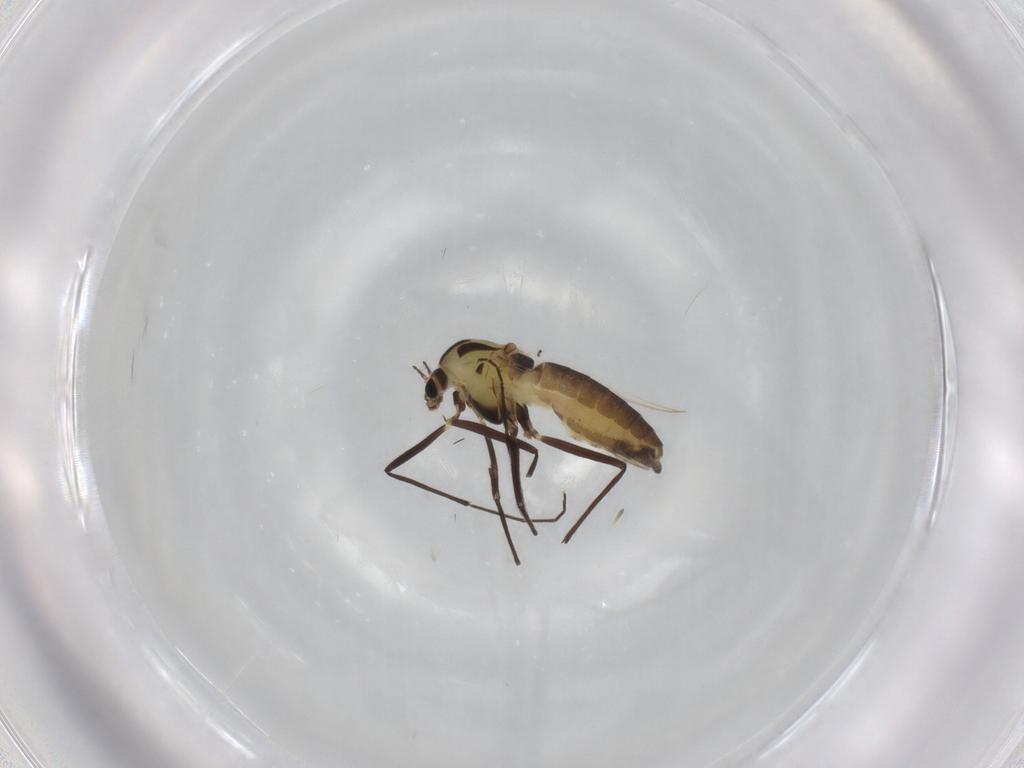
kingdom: Animalia
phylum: Arthropoda
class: Insecta
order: Diptera
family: Chironomidae
